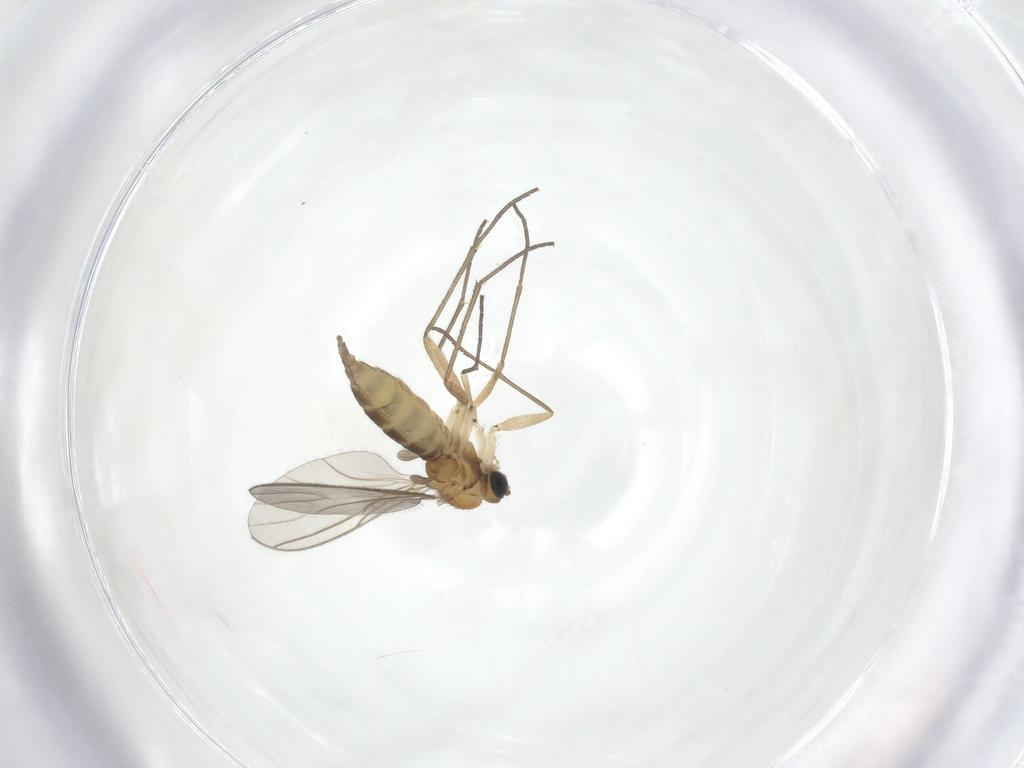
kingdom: Animalia
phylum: Arthropoda
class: Insecta
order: Diptera
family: Sciaridae
